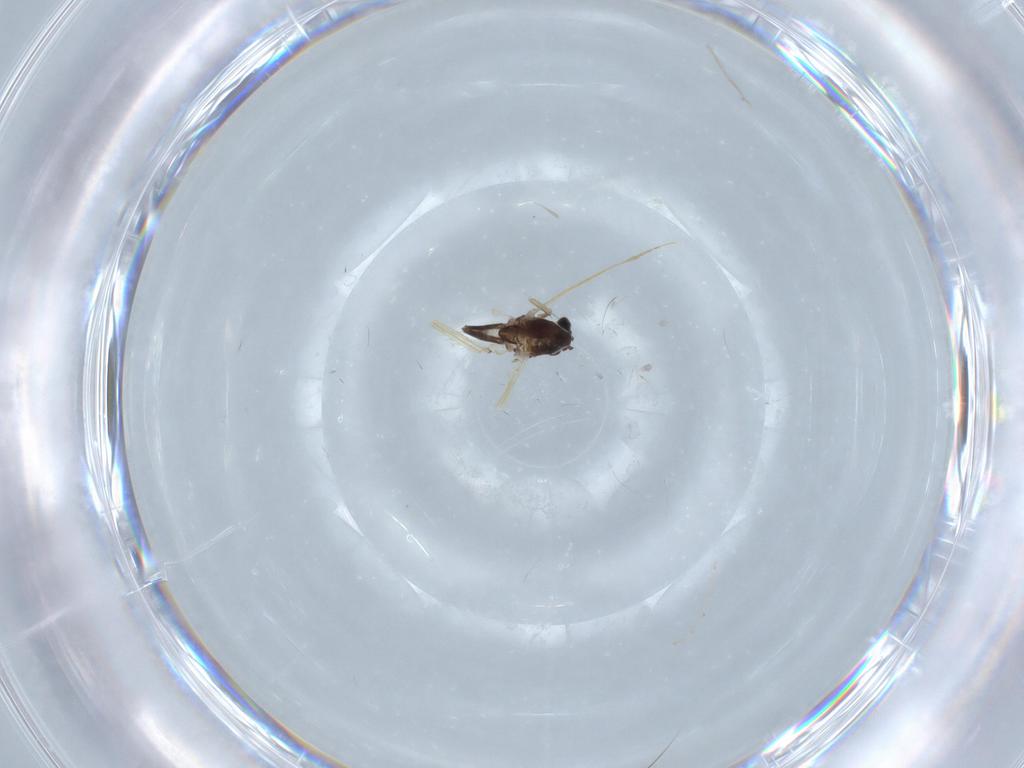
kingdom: Animalia
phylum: Arthropoda
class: Insecta
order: Diptera
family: Chironomidae
